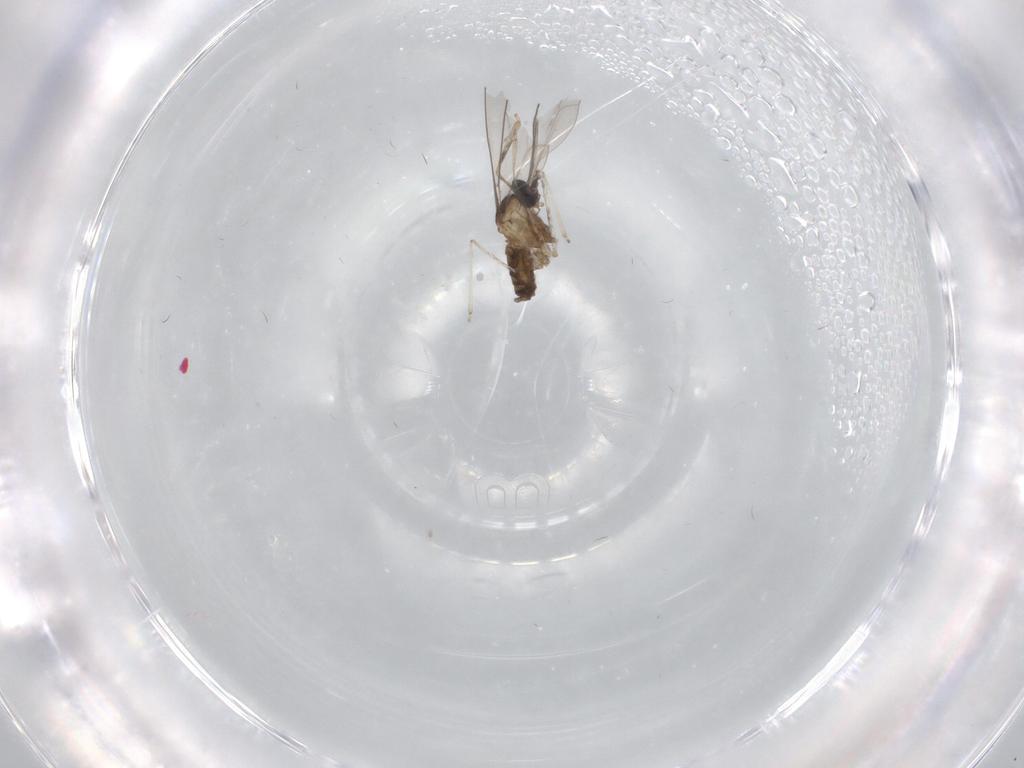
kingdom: Animalia
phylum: Arthropoda
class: Insecta
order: Diptera
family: Cecidomyiidae
